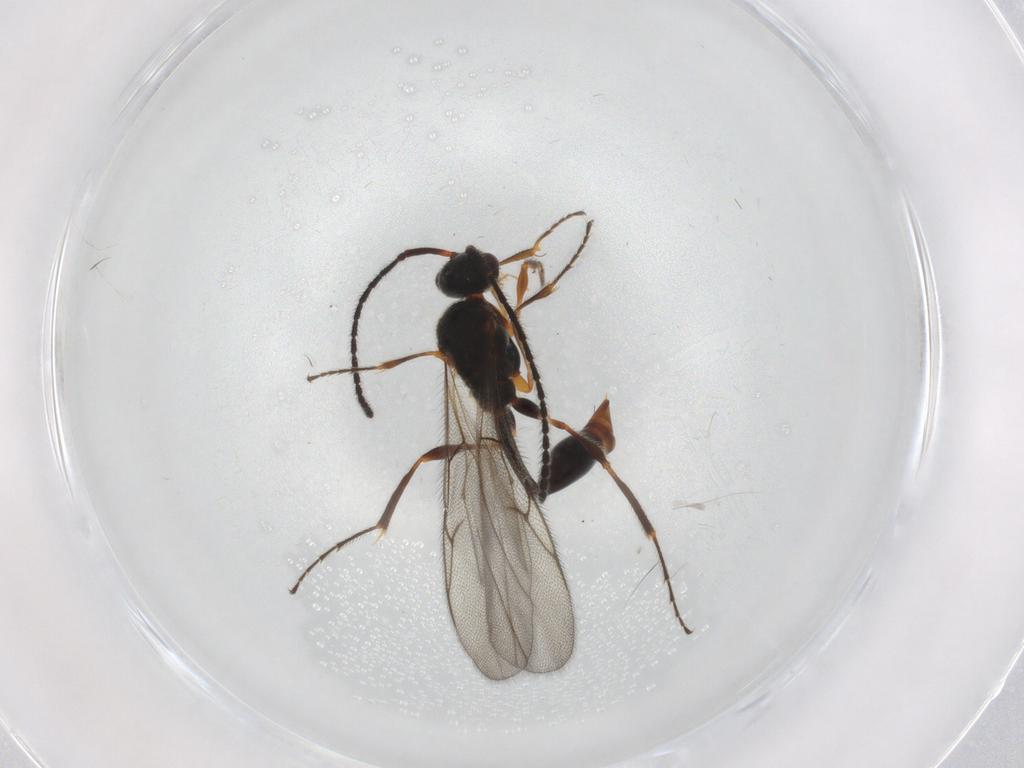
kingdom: Animalia
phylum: Arthropoda
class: Insecta
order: Hymenoptera
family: Diapriidae
